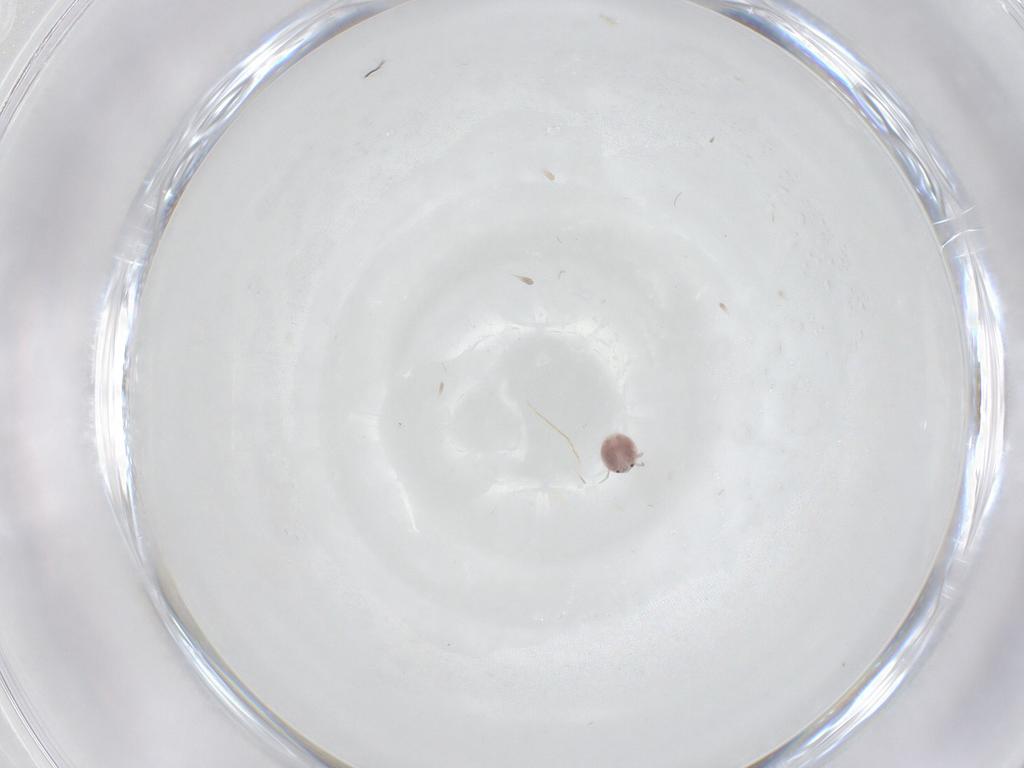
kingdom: Animalia
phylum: Arthropoda
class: Arachnida
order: Trombidiformes
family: Pionidae
